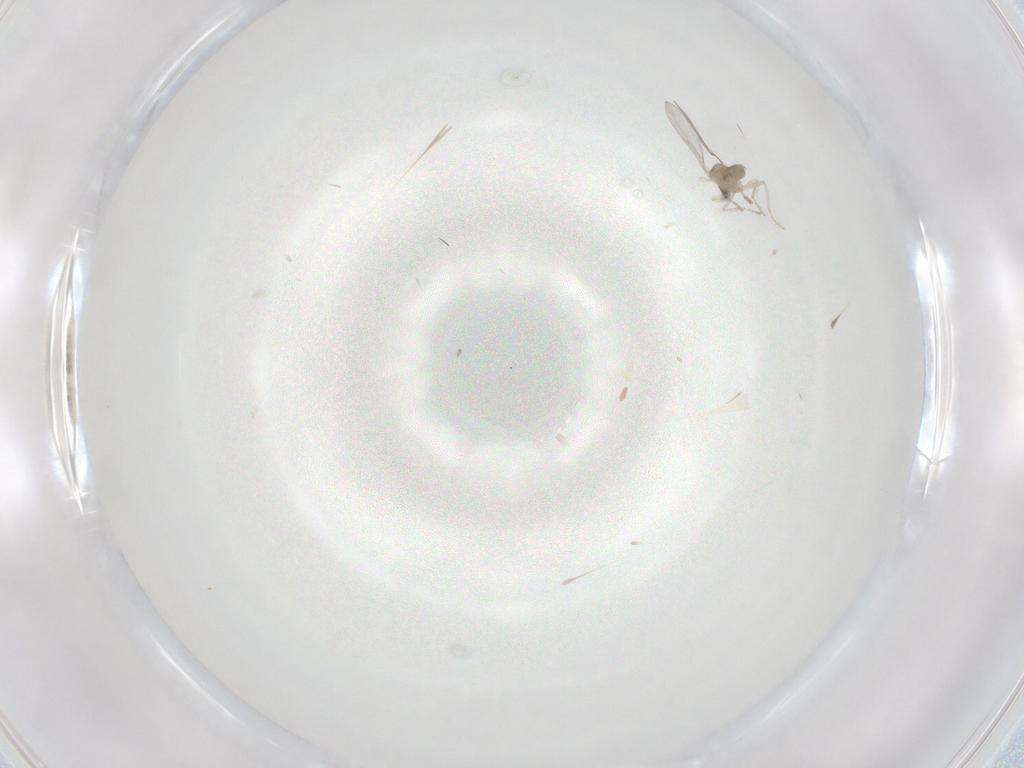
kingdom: Animalia
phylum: Arthropoda
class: Insecta
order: Diptera
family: Cecidomyiidae
